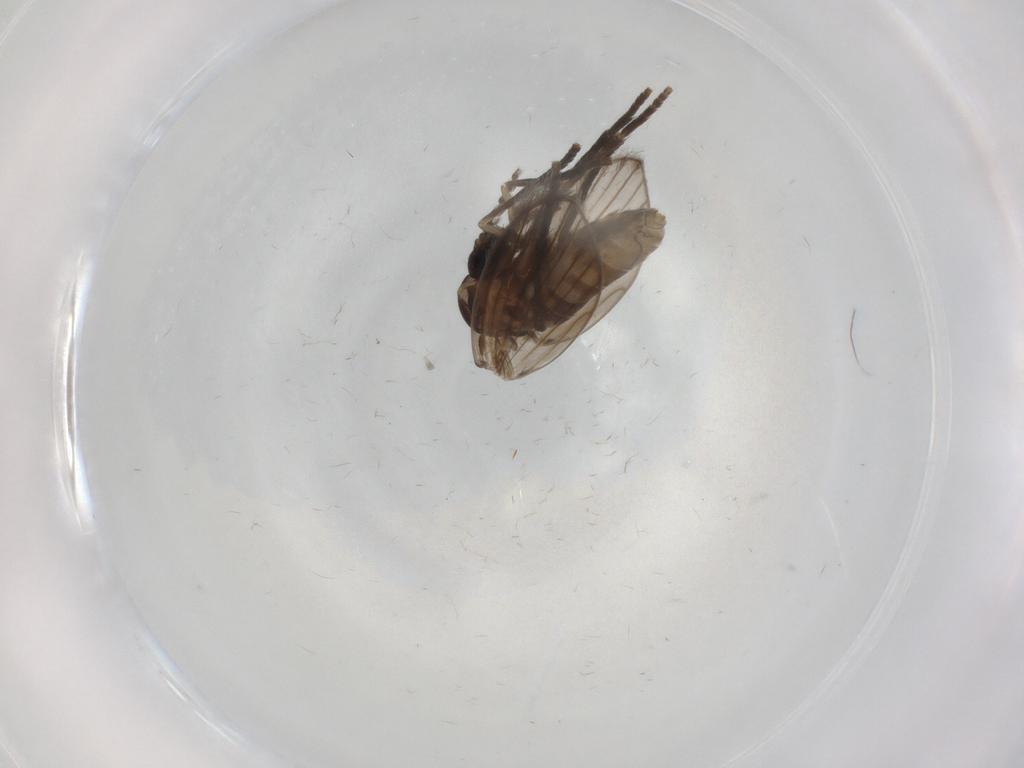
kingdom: Animalia
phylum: Arthropoda
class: Insecta
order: Diptera
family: Psychodidae
